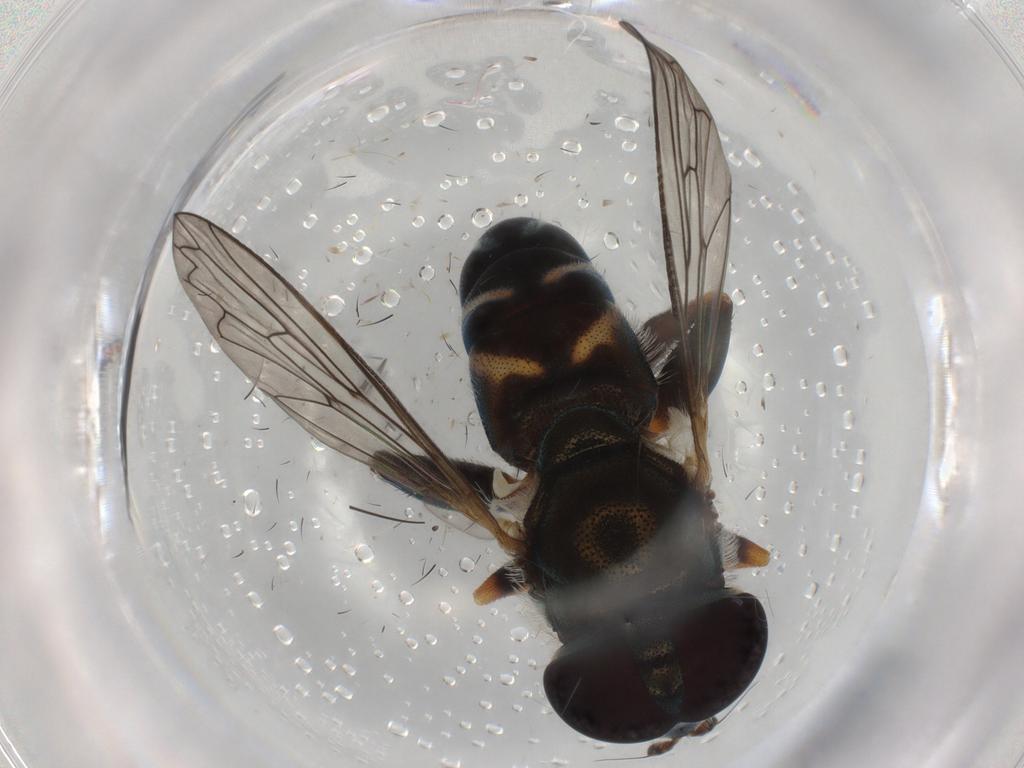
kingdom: Animalia
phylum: Arthropoda
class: Insecta
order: Diptera
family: Syrphidae
